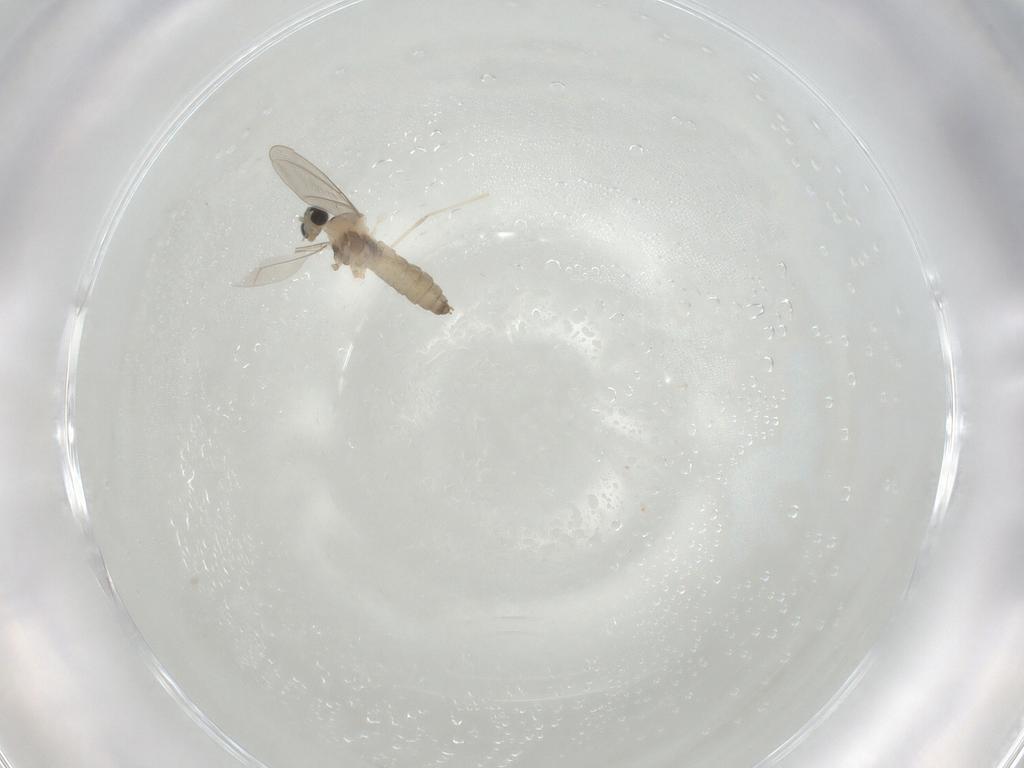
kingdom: Animalia
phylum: Arthropoda
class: Insecta
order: Diptera
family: Cecidomyiidae
